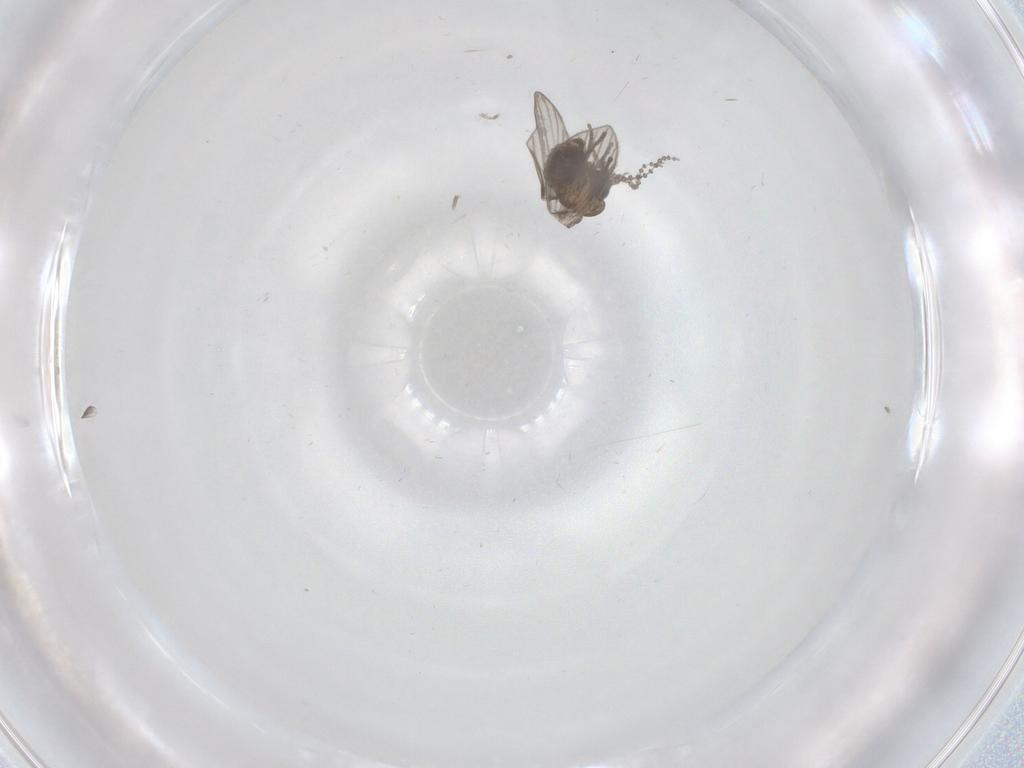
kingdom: Animalia
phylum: Arthropoda
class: Insecta
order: Diptera
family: Psychodidae
